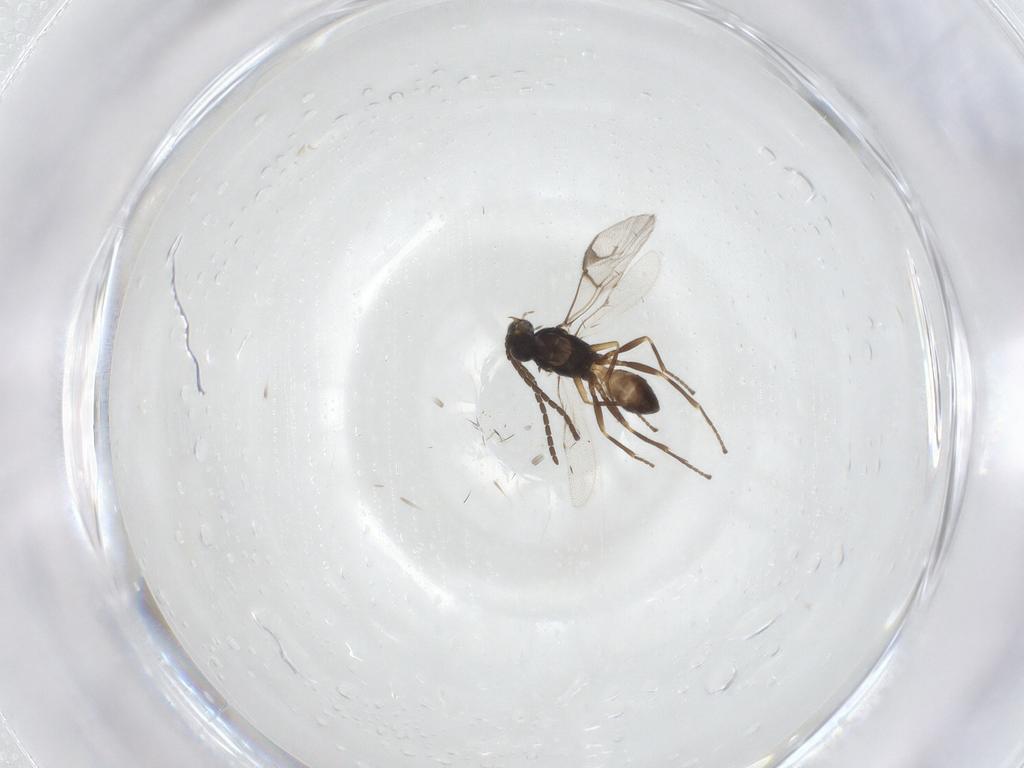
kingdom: Animalia
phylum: Arthropoda
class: Insecta
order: Hymenoptera
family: Braconidae
